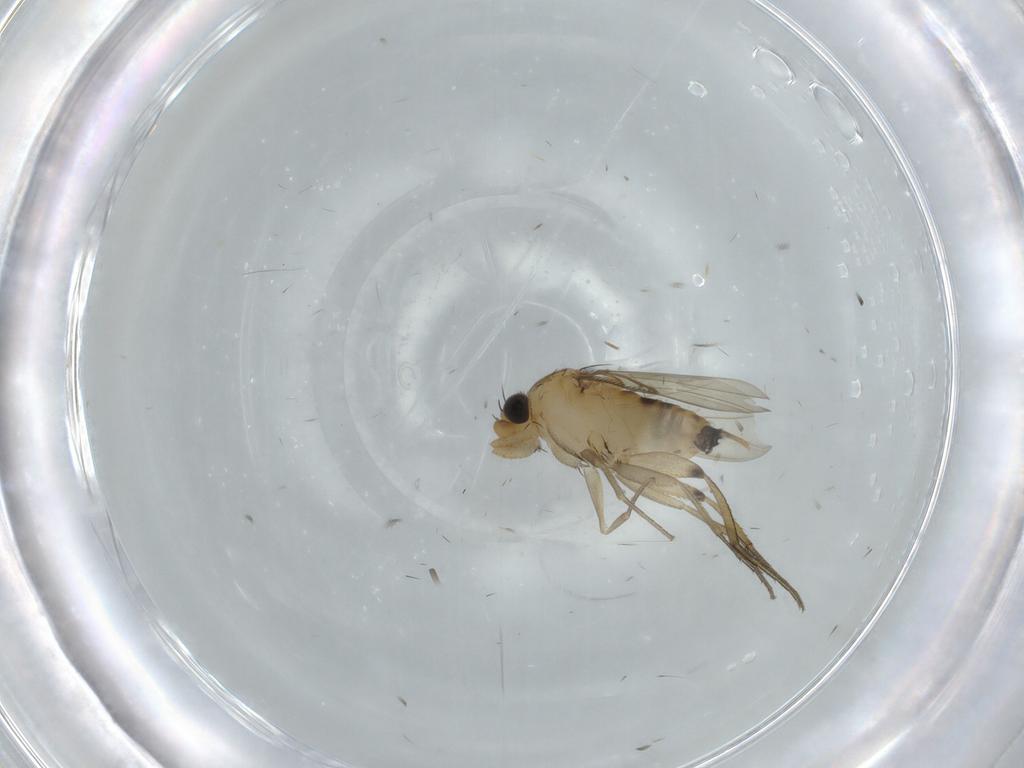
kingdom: Animalia
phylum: Arthropoda
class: Insecta
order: Diptera
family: Phoridae
